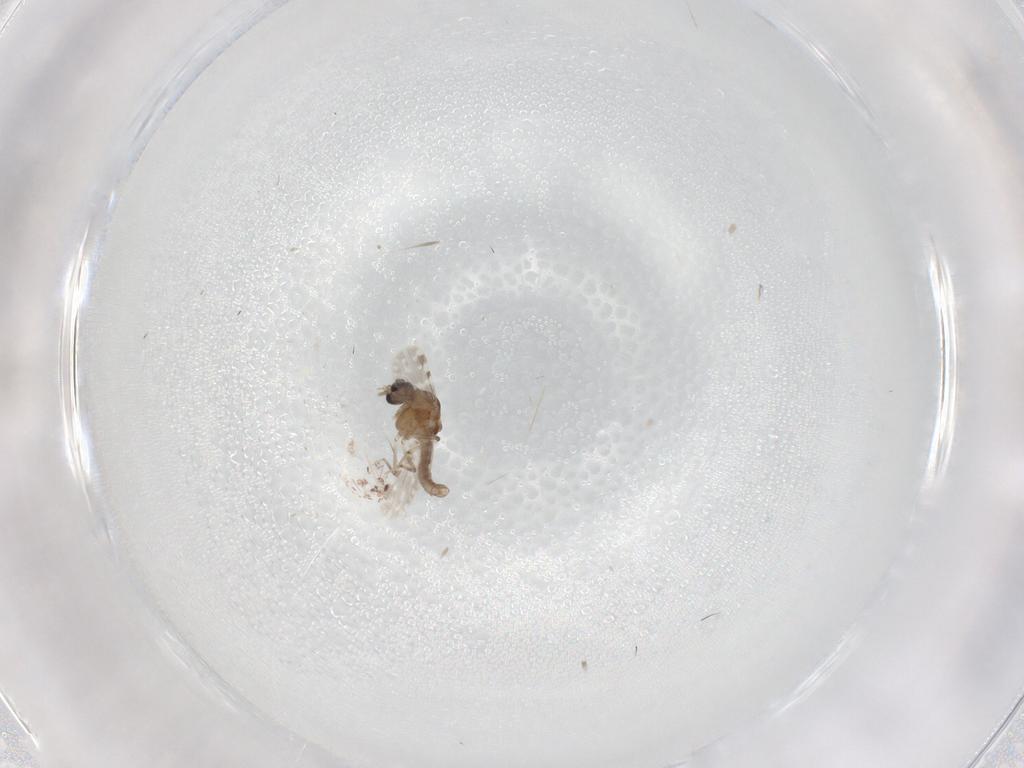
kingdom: Animalia
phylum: Arthropoda
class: Insecta
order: Diptera
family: Ceratopogonidae
